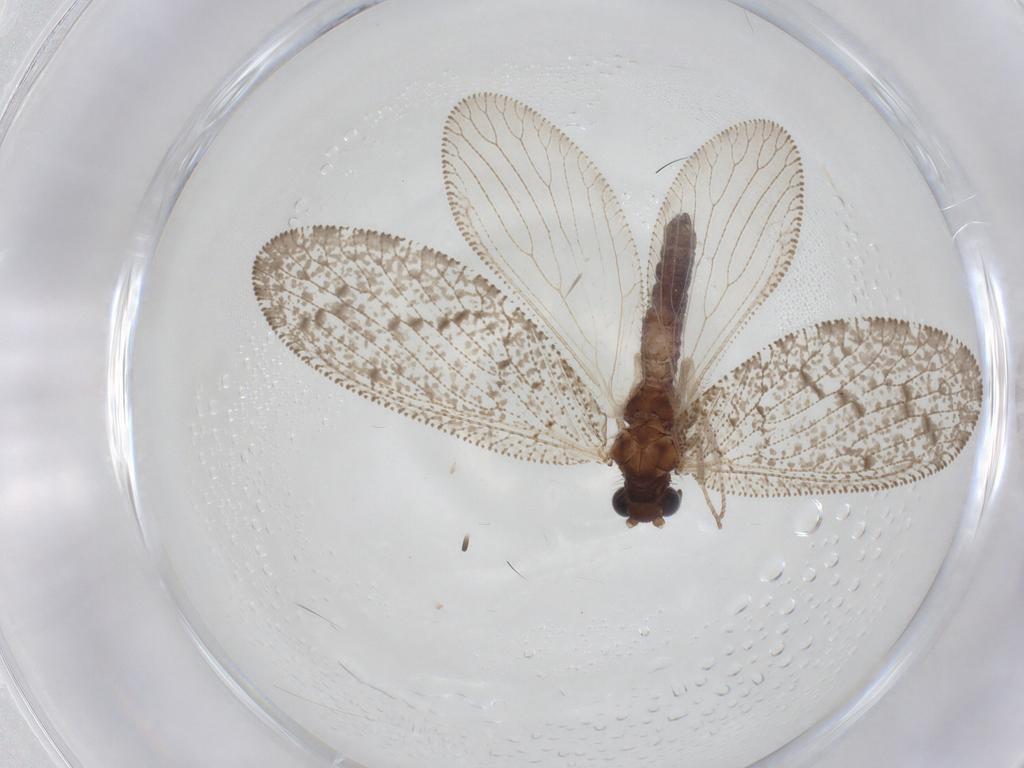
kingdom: Animalia
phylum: Arthropoda
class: Insecta
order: Neuroptera
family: Hemerobiidae
